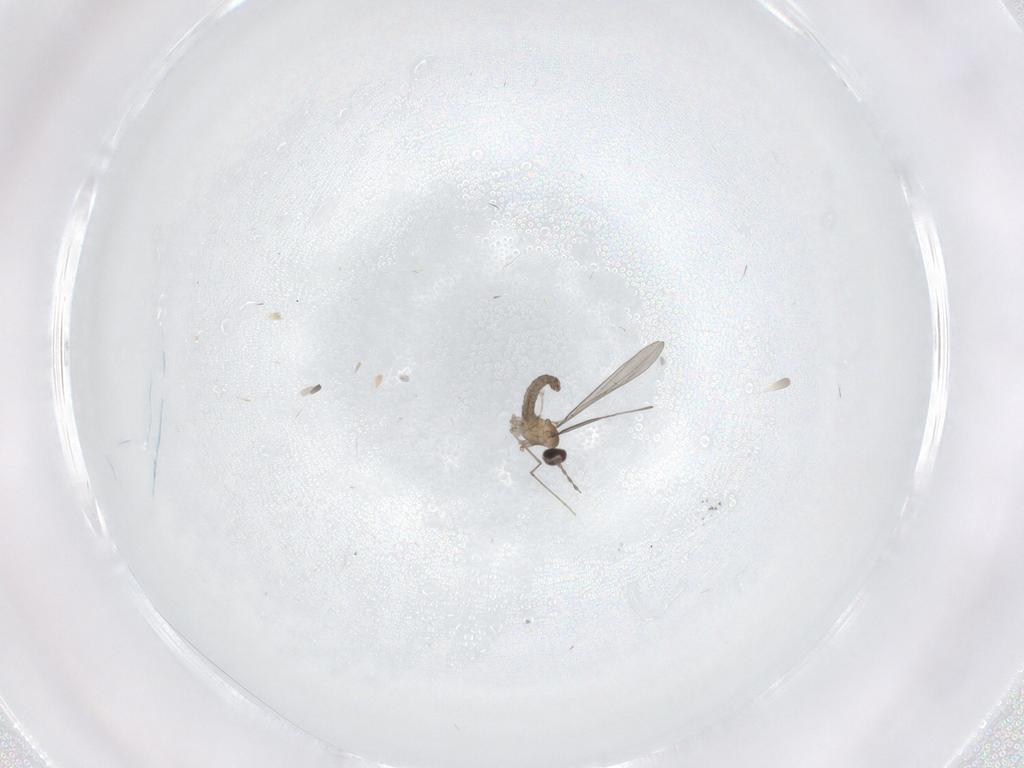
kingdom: Animalia
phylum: Arthropoda
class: Insecta
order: Diptera
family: Cecidomyiidae
